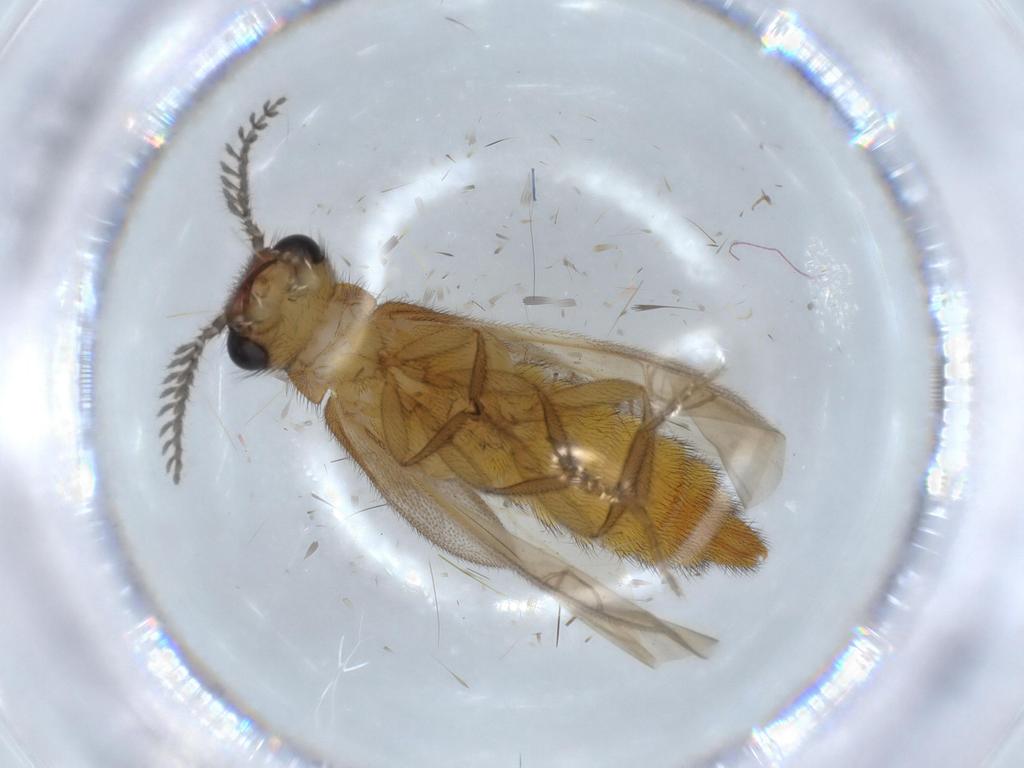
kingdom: Animalia
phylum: Arthropoda
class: Insecta
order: Coleoptera
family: Erotylidae
